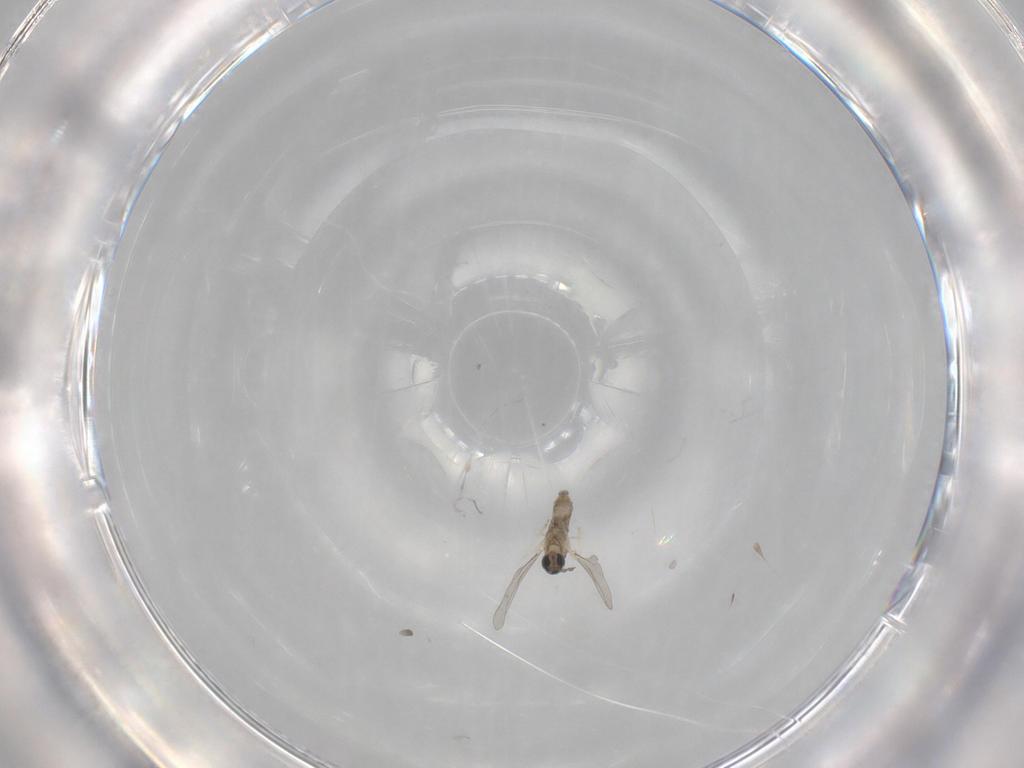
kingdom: Animalia
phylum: Arthropoda
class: Insecta
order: Diptera
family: Cecidomyiidae
